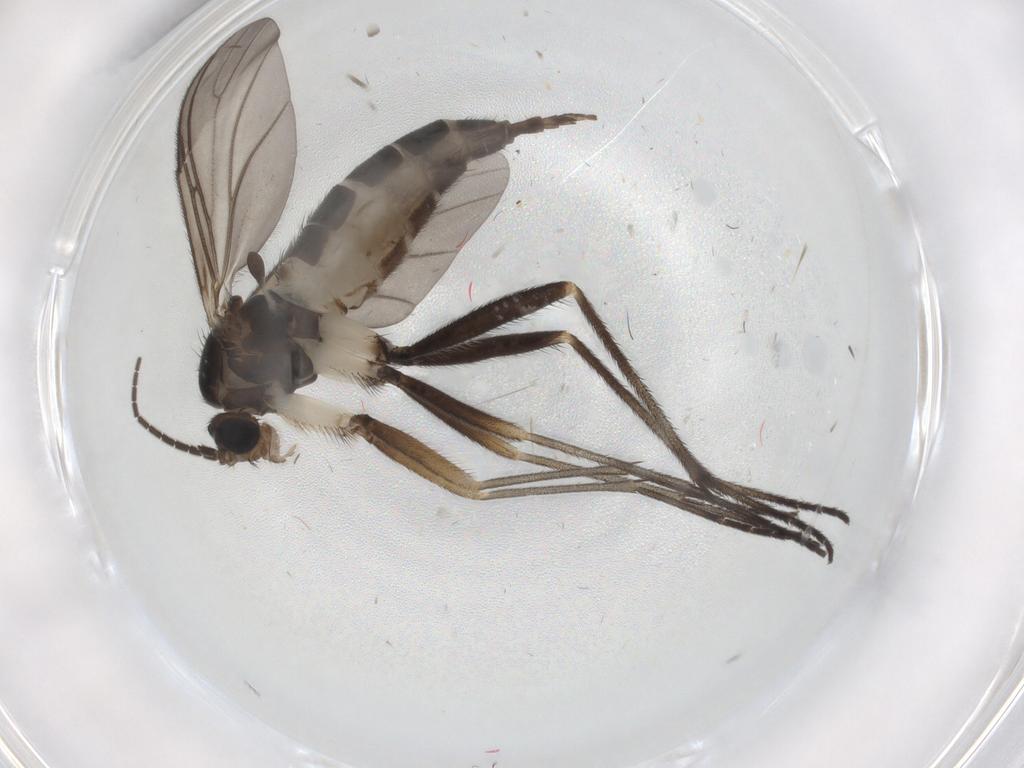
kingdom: Animalia
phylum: Arthropoda
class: Insecta
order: Diptera
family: Sciaridae
